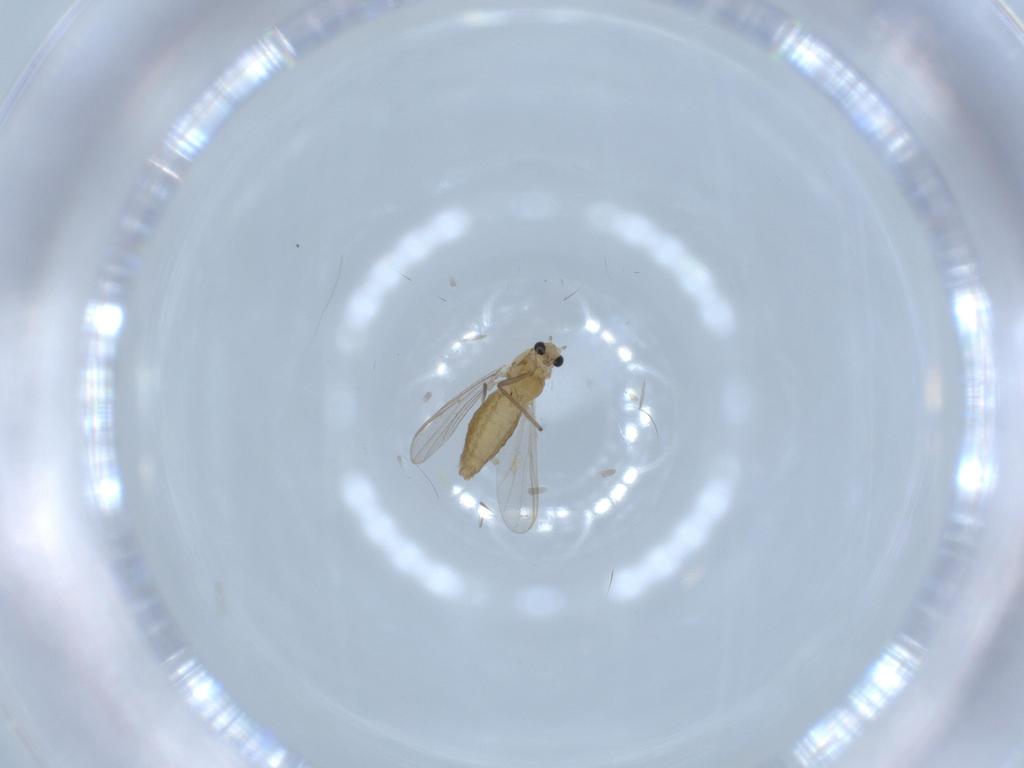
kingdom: Animalia
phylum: Arthropoda
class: Insecta
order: Diptera
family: Chironomidae
